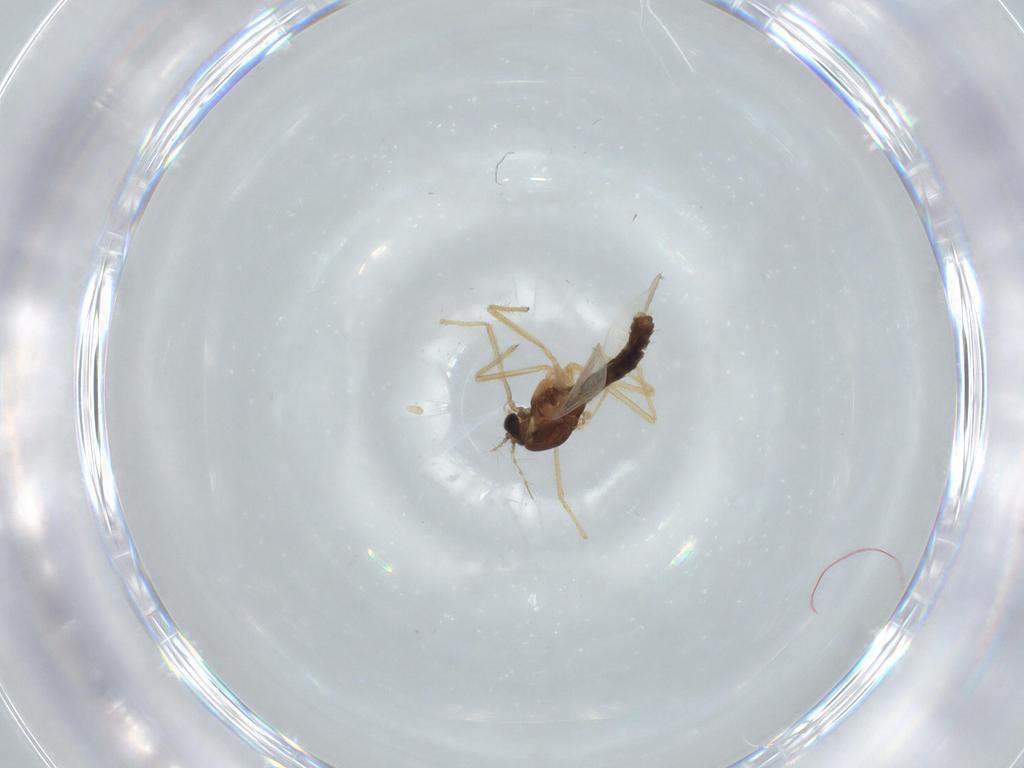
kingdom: Animalia
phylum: Arthropoda
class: Insecta
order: Diptera
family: Chironomidae
